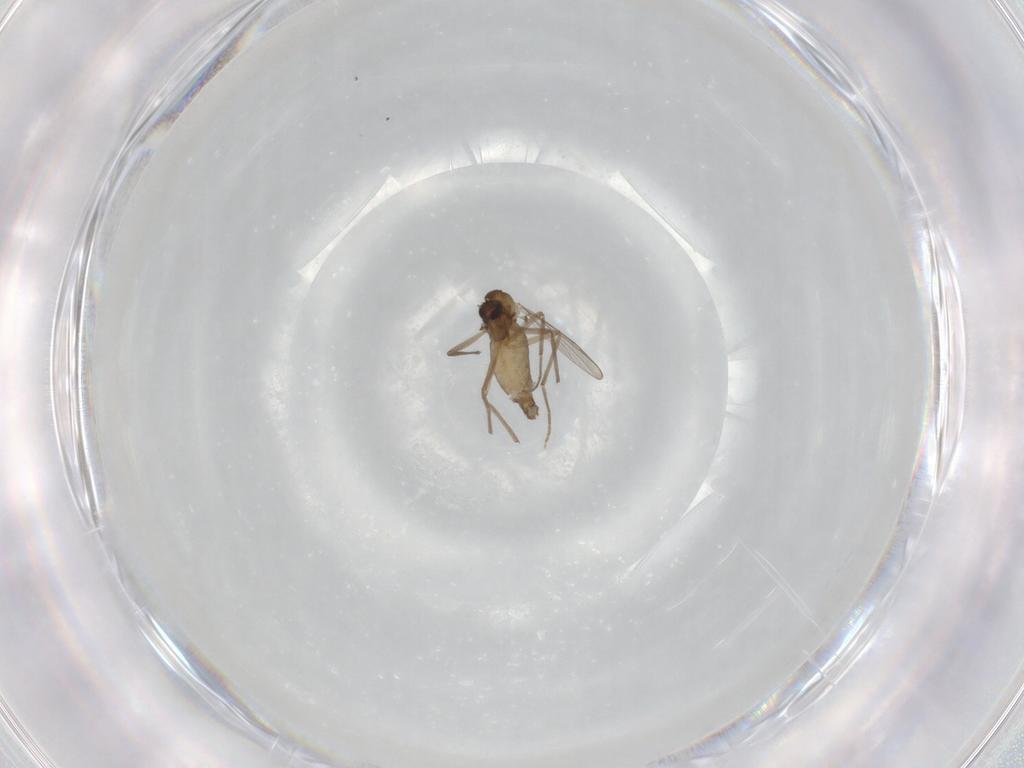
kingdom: Animalia
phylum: Arthropoda
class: Insecta
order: Diptera
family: Chironomidae
